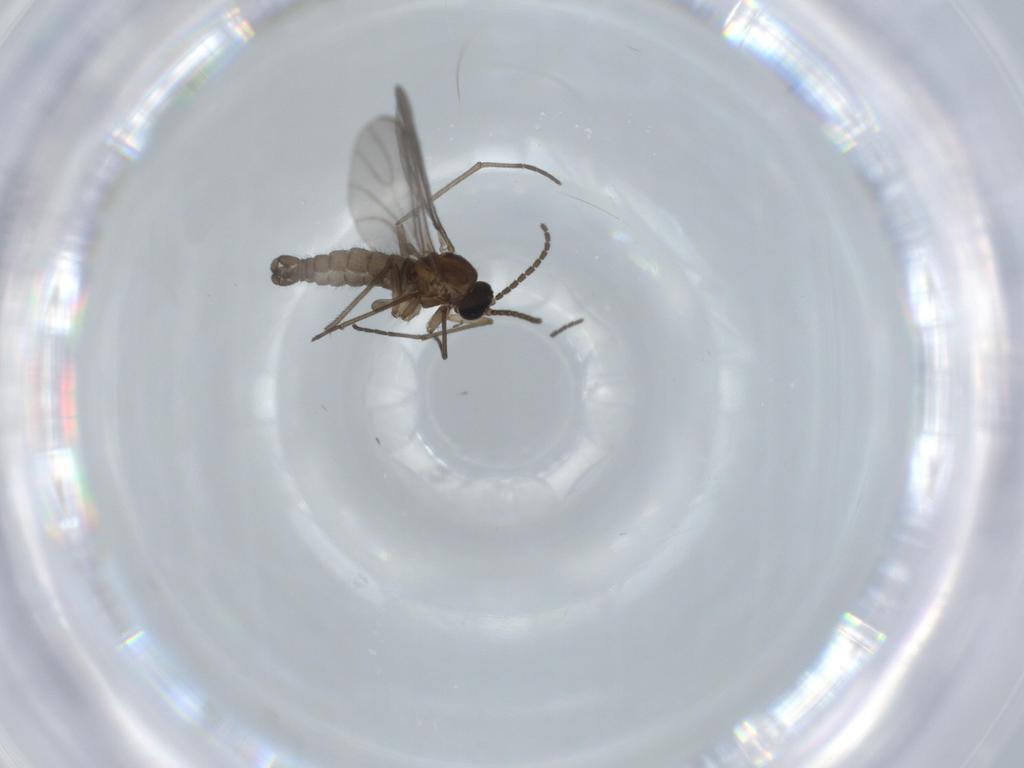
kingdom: Animalia
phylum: Arthropoda
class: Insecta
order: Diptera
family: Sciaridae
